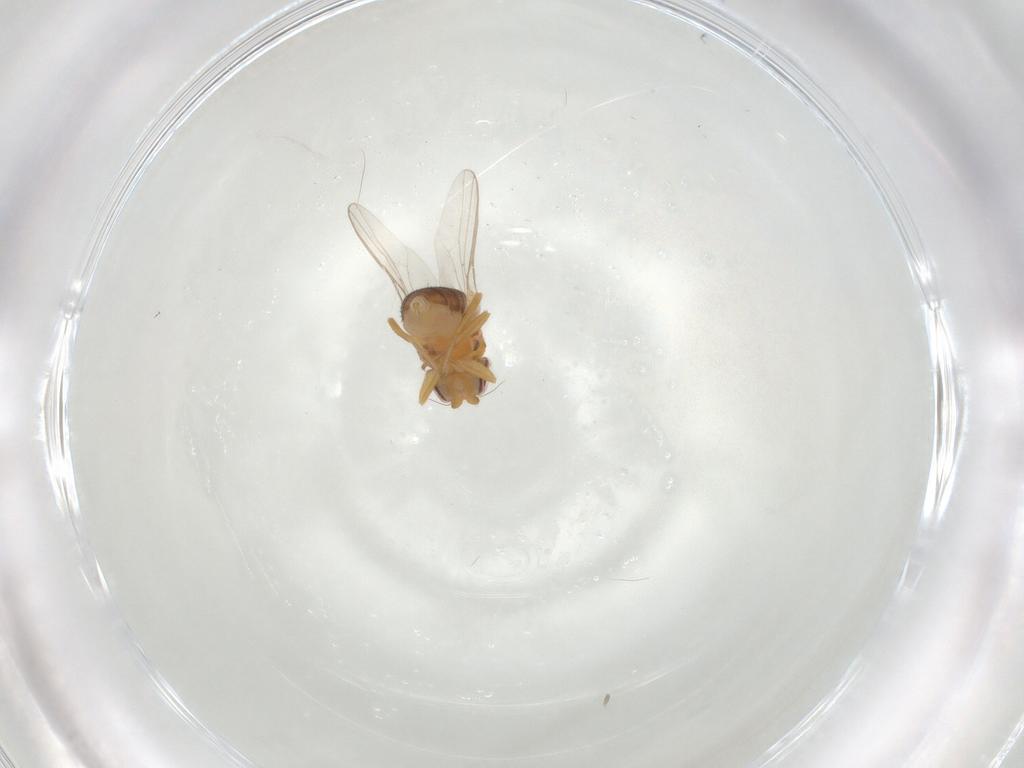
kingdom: Animalia
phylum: Arthropoda
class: Insecta
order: Diptera
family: Chloropidae
